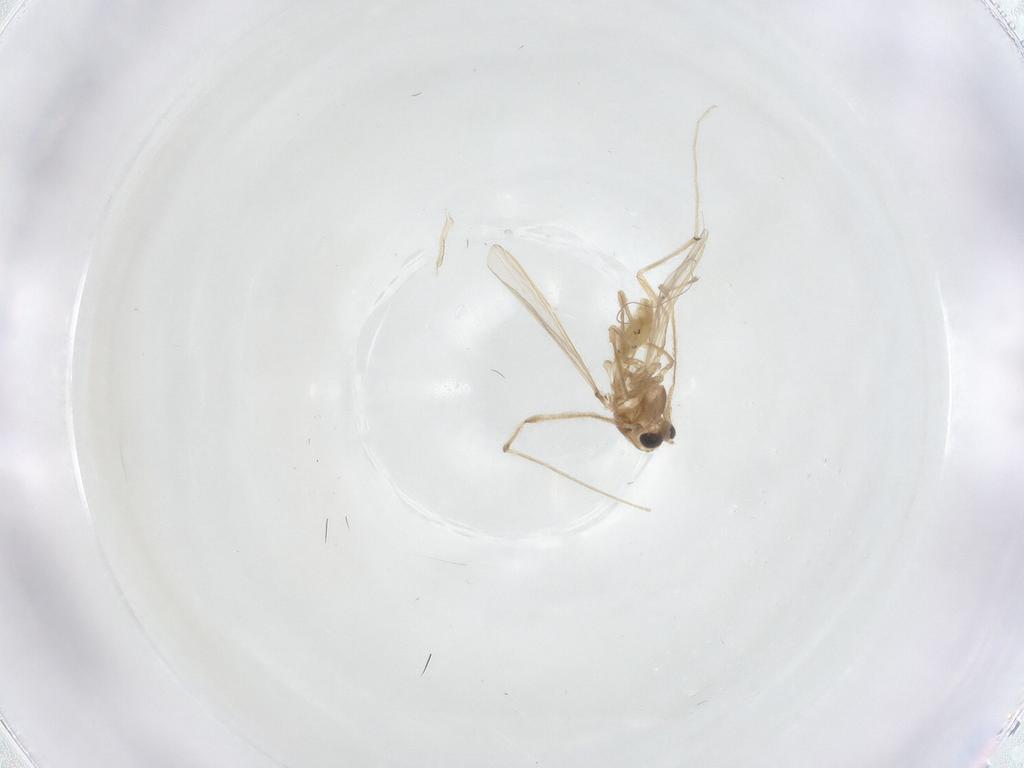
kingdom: Animalia
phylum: Arthropoda
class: Insecta
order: Diptera
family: Chironomidae
